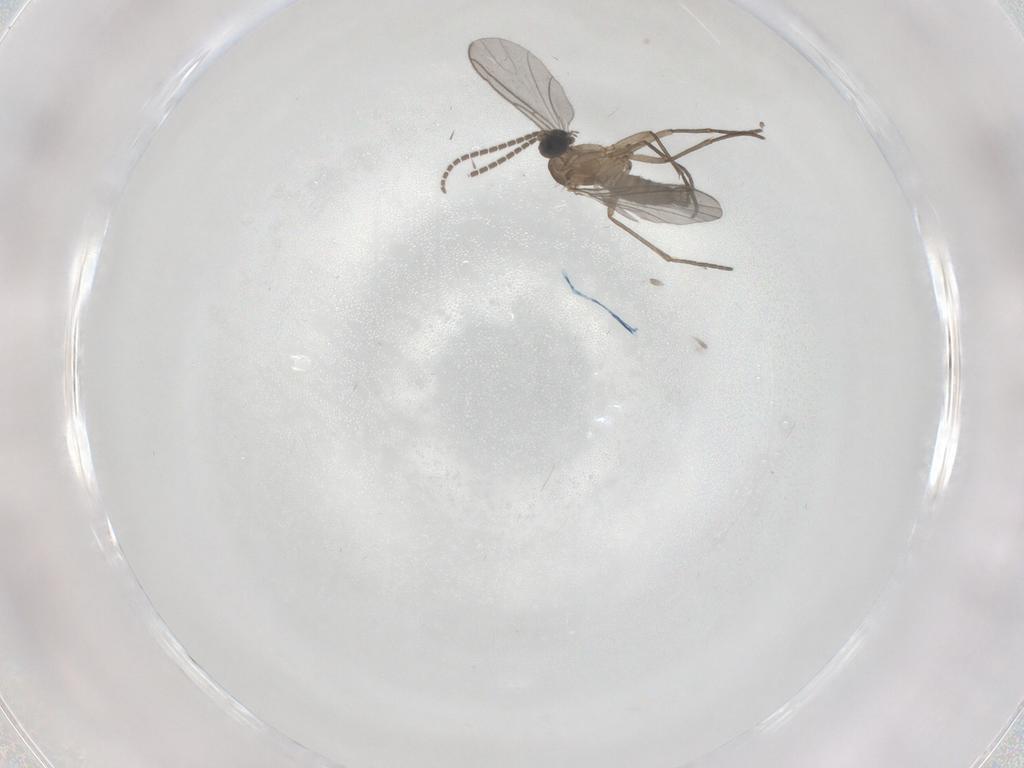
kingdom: Animalia
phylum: Arthropoda
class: Insecta
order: Diptera
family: Sciaridae
